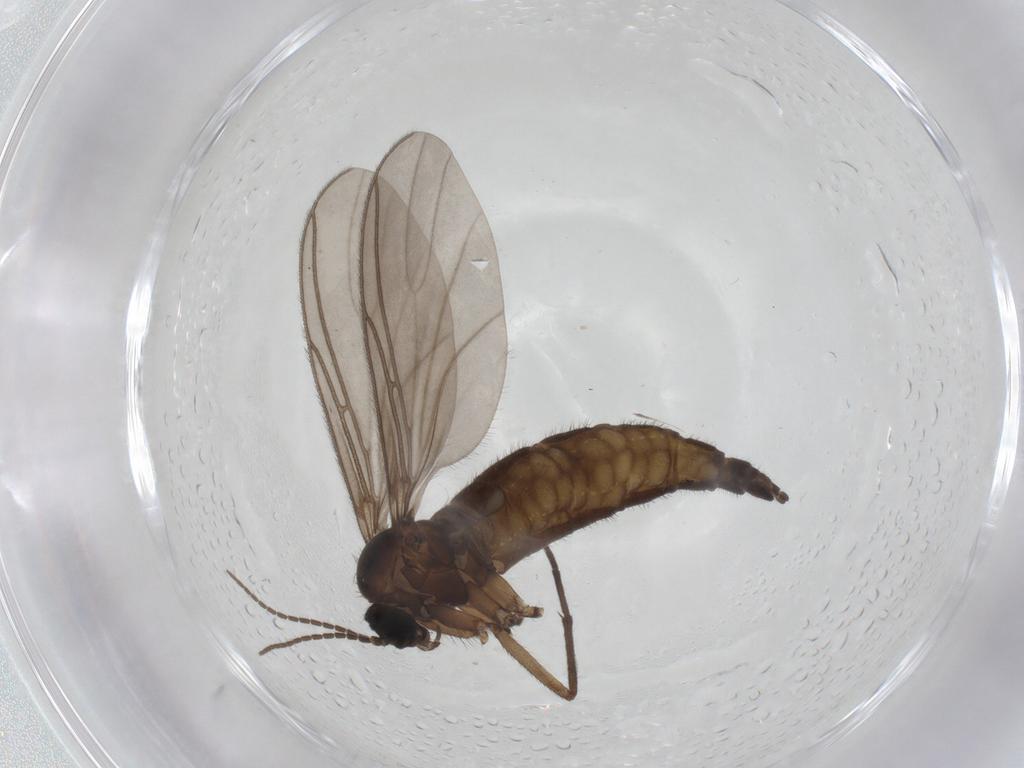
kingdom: Animalia
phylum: Arthropoda
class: Insecta
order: Diptera
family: Sciaridae
